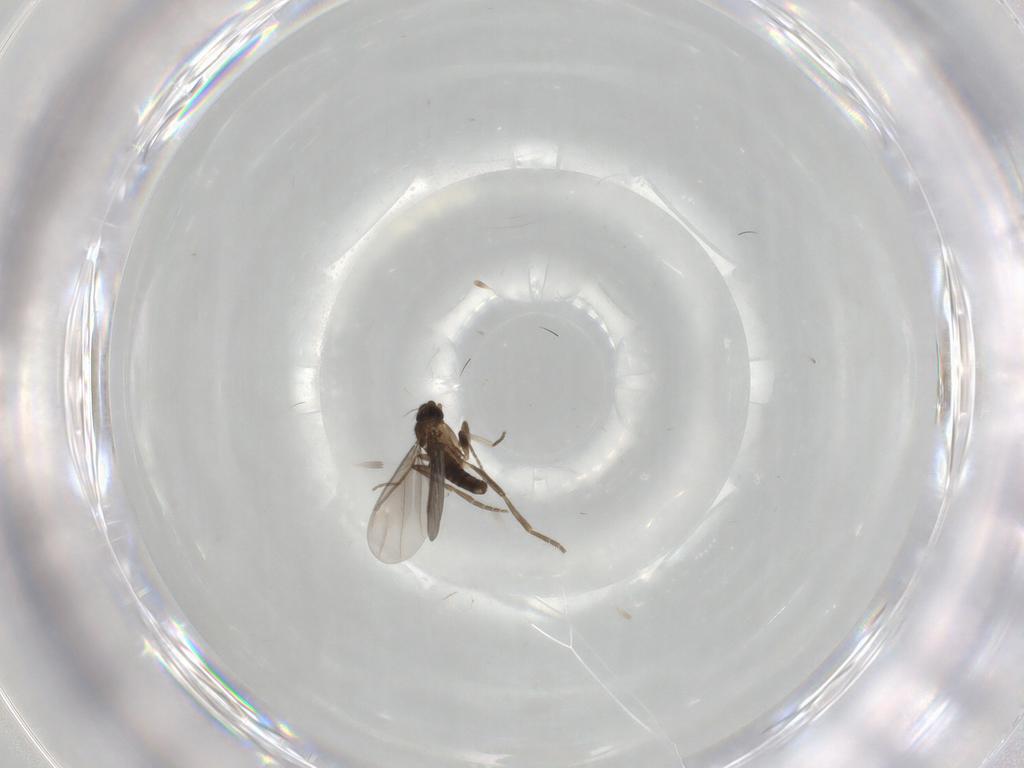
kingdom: Animalia
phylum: Arthropoda
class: Insecta
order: Diptera
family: Phoridae
